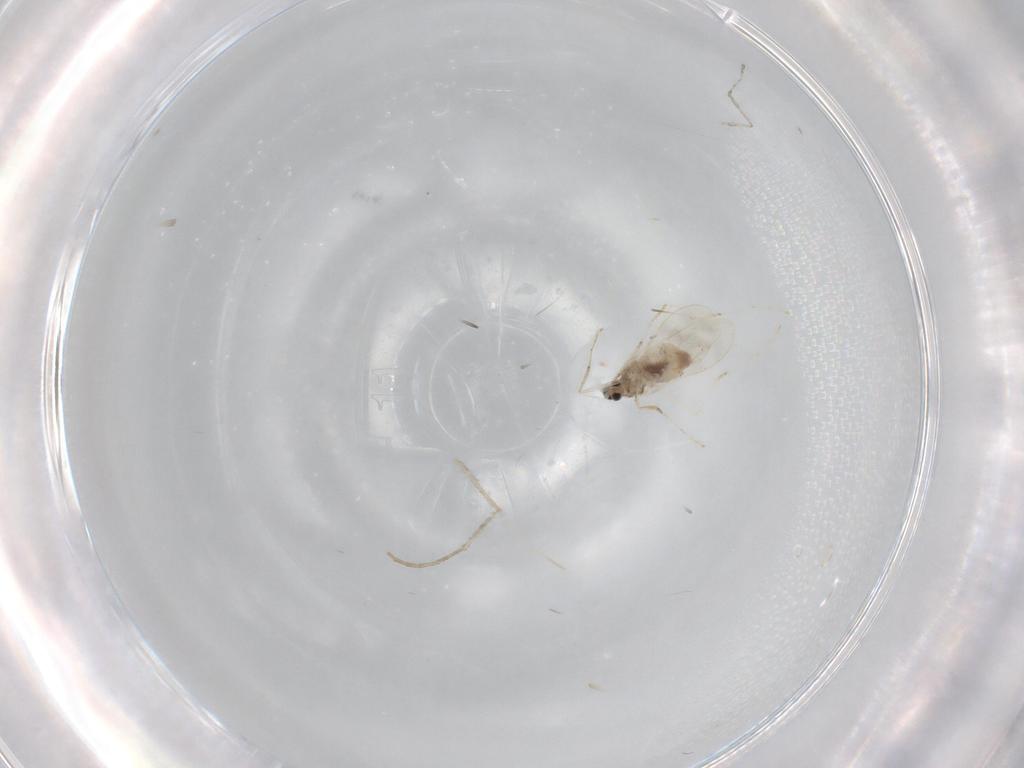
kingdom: Animalia
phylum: Arthropoda
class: Insecta
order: Diptera
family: Cecidomyiidae
